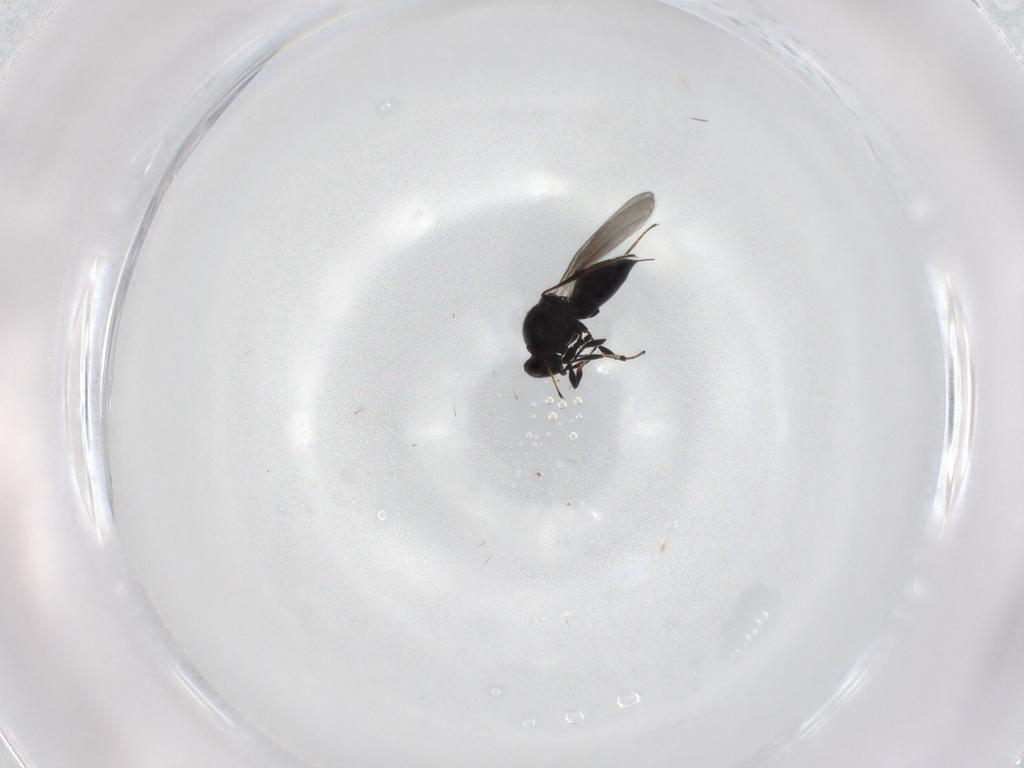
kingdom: Animalia
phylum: Arthropoda
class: Insecta
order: Hymenoptera
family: Platygastridae
